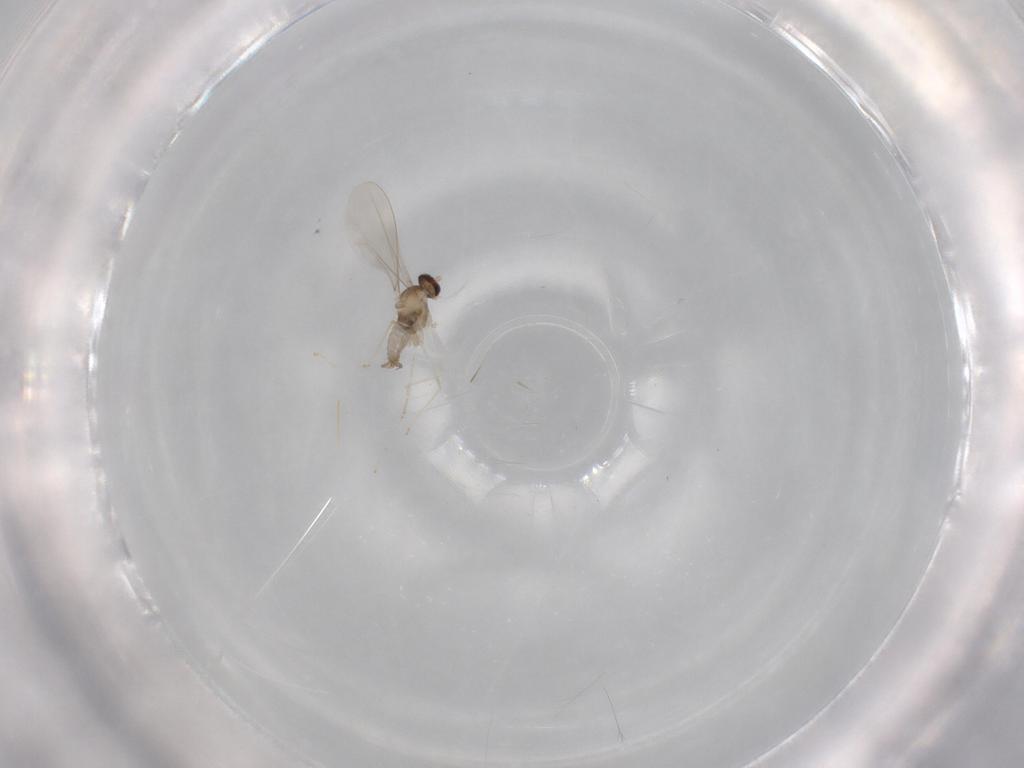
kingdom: Animalia
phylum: Arthropoda
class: Insecta
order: Diptera
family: Cecidomyiidae
